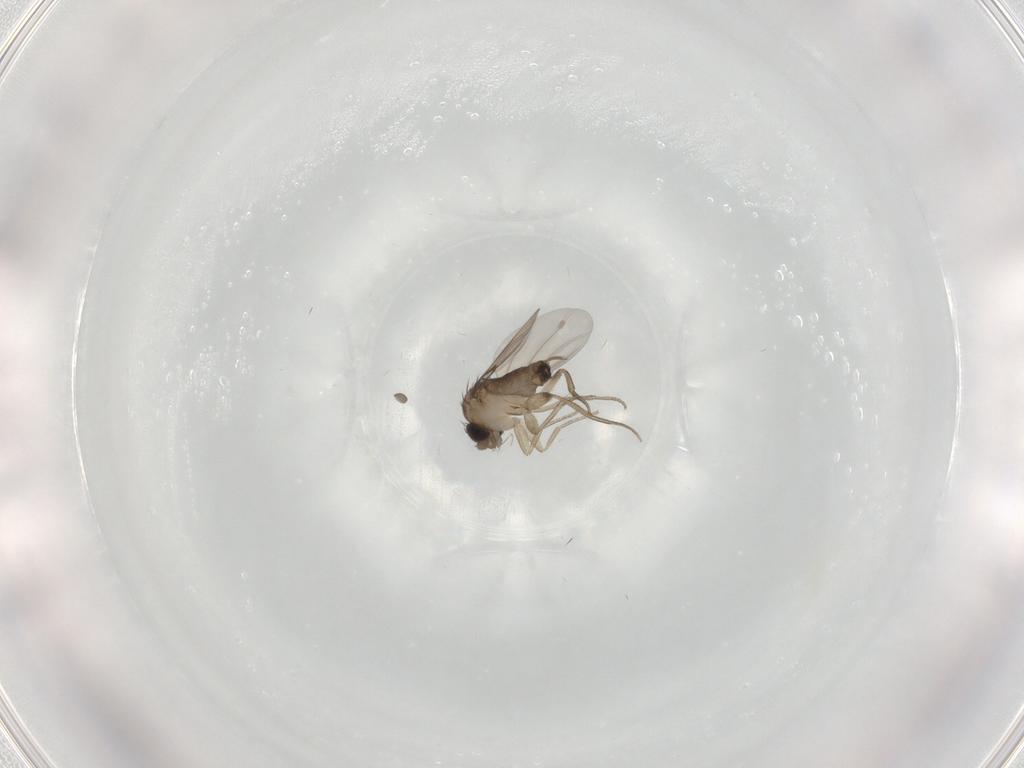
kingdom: Animalia
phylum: Arthropoda
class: Insecta
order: Diptera
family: Phoridae
